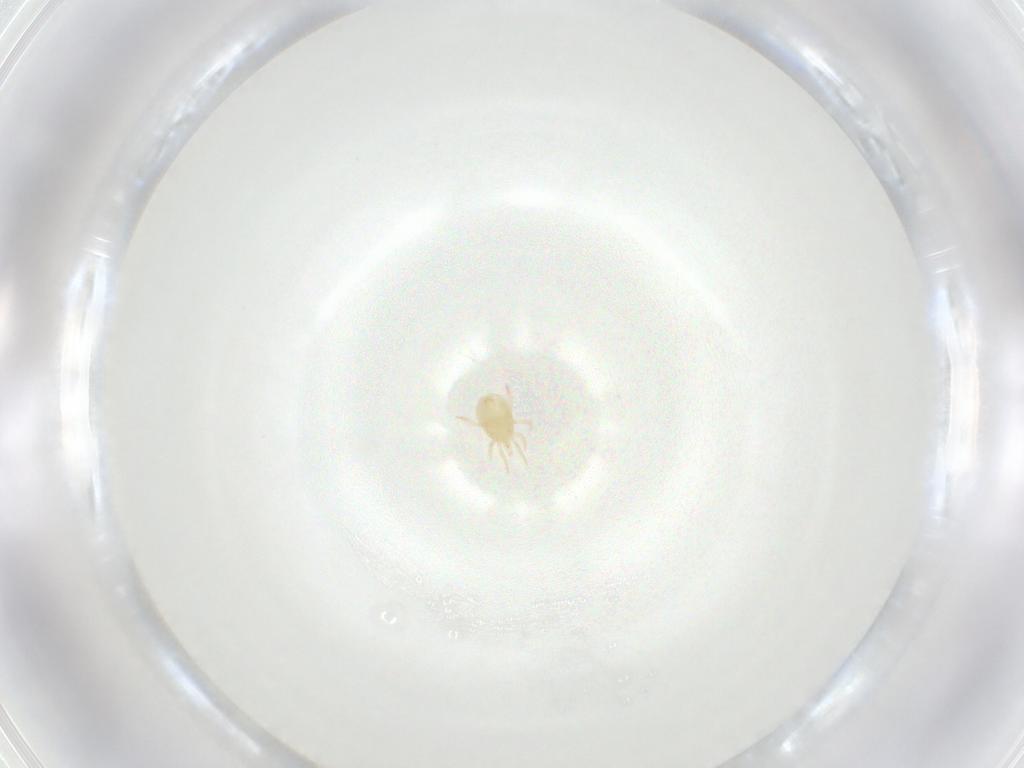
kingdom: Animalia
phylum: Arthropoda
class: Arachnida
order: Mesostigmata
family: Phytoseiidae
